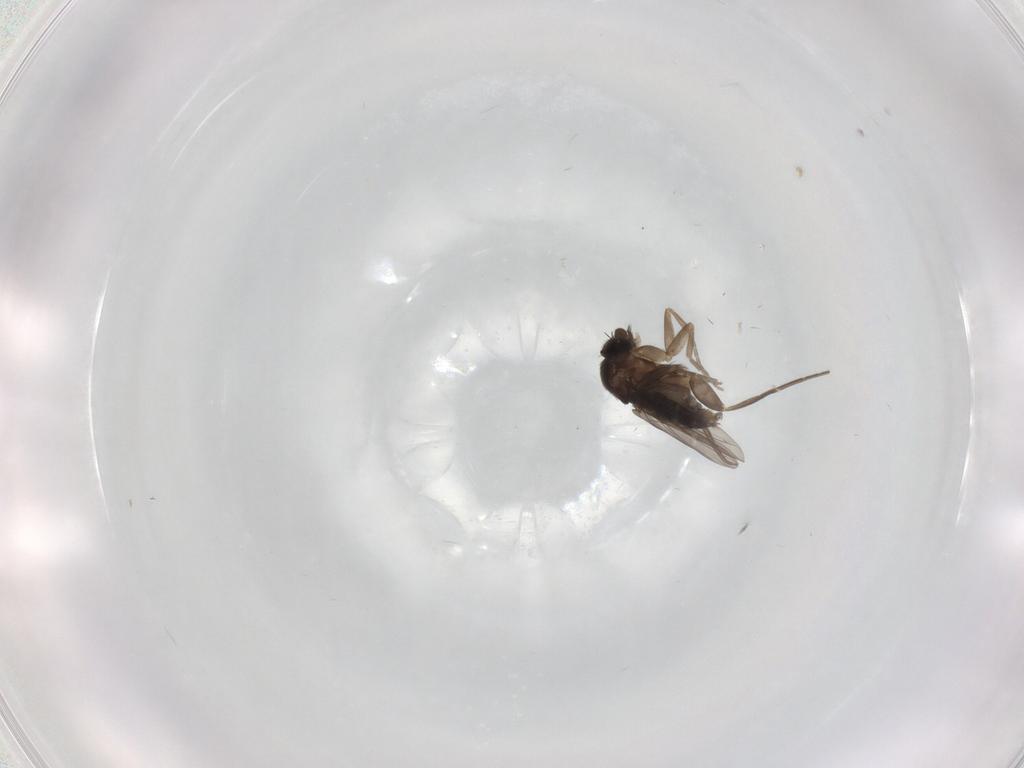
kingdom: Animalia
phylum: Arthropoda
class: Insecta
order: Diptera
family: Phoridae
